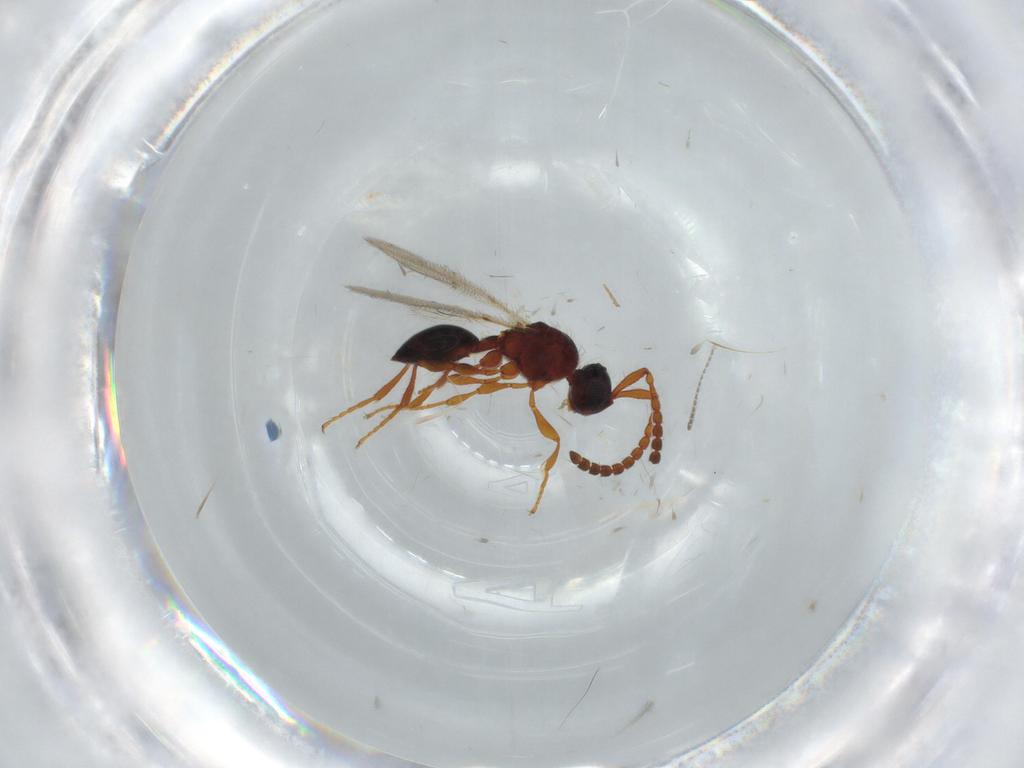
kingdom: Animalia
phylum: Arthropoda
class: Insecta
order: Hymenoptera
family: Diapriidae
